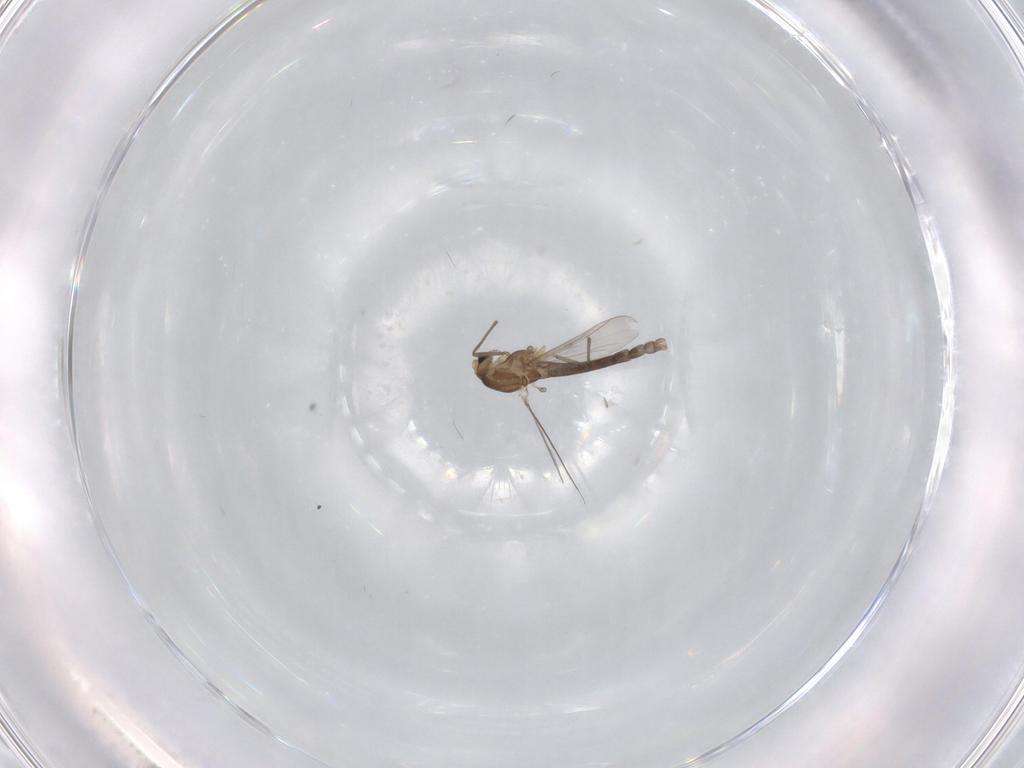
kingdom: Animalia
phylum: Arthropoda
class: Insecta
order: Diptera
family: Chironomidae
